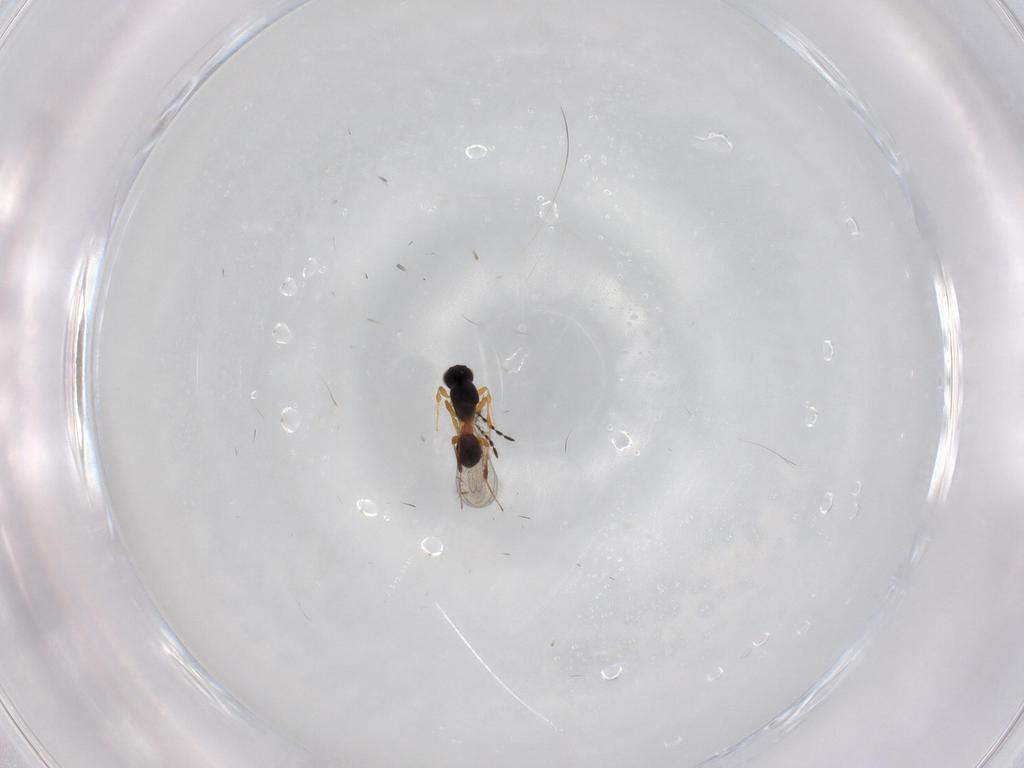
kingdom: Animalia
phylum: Arthropoda
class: Insecta
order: Hymenoptera
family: Platygastridae
